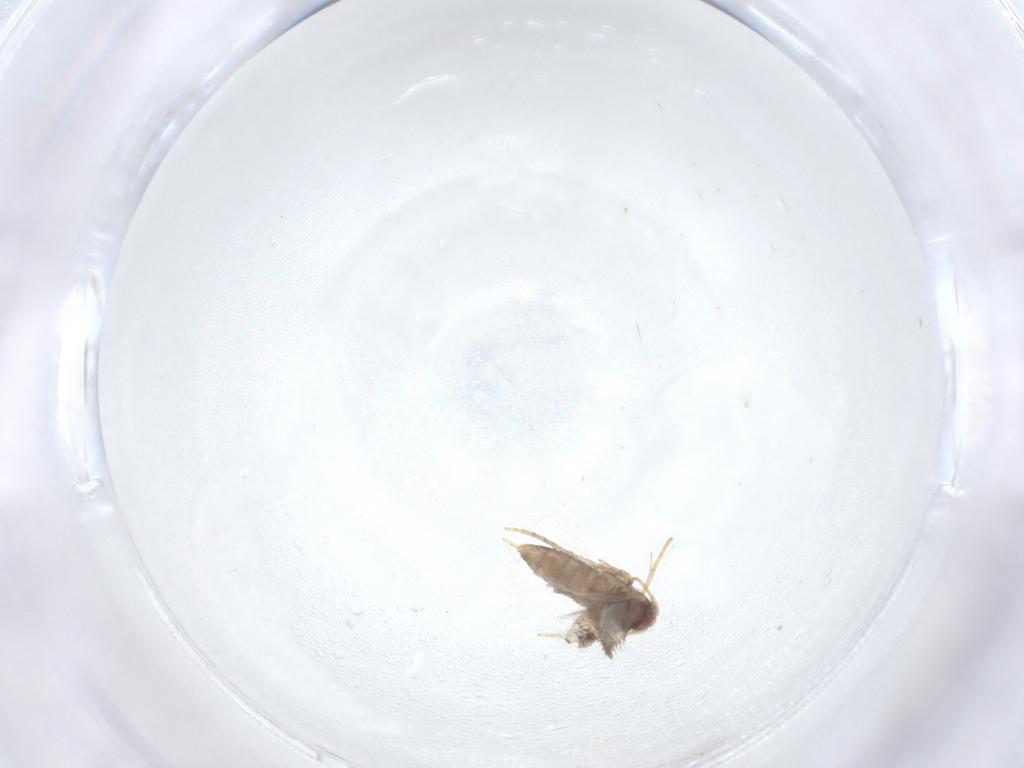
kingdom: Animalia
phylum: Arthropoda
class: Insecta
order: Lepidoptera
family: Nepticulidae
